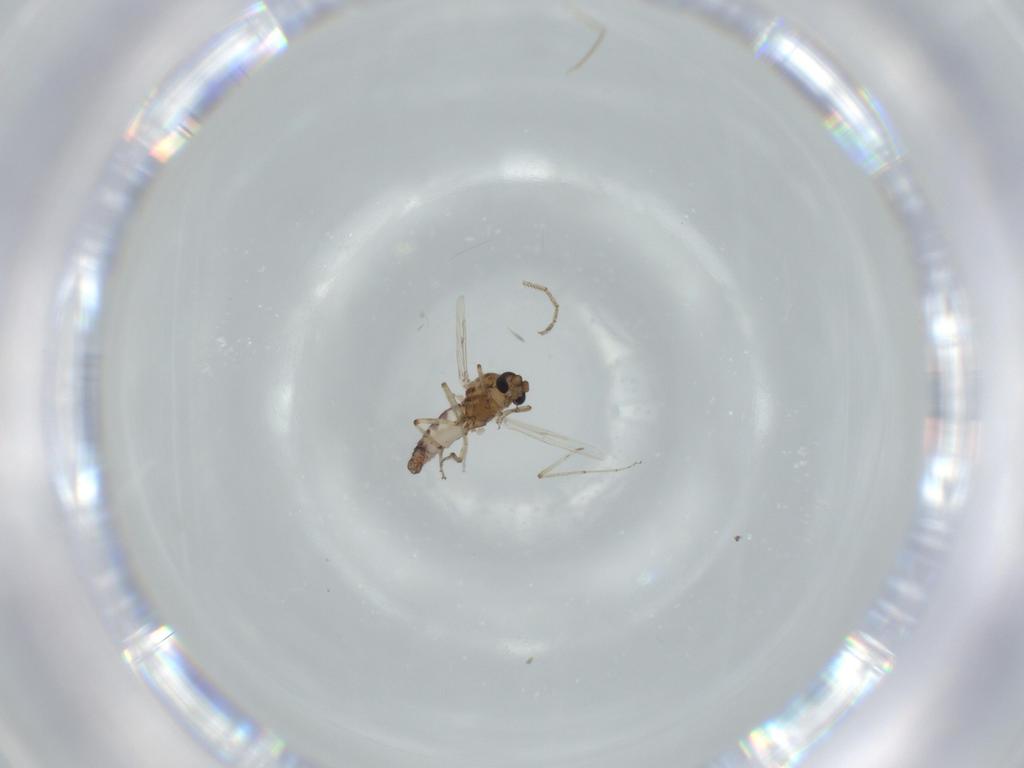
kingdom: Animalia
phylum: Arthropoda
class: Insecta
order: Diptera
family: Ceratopogonidae
